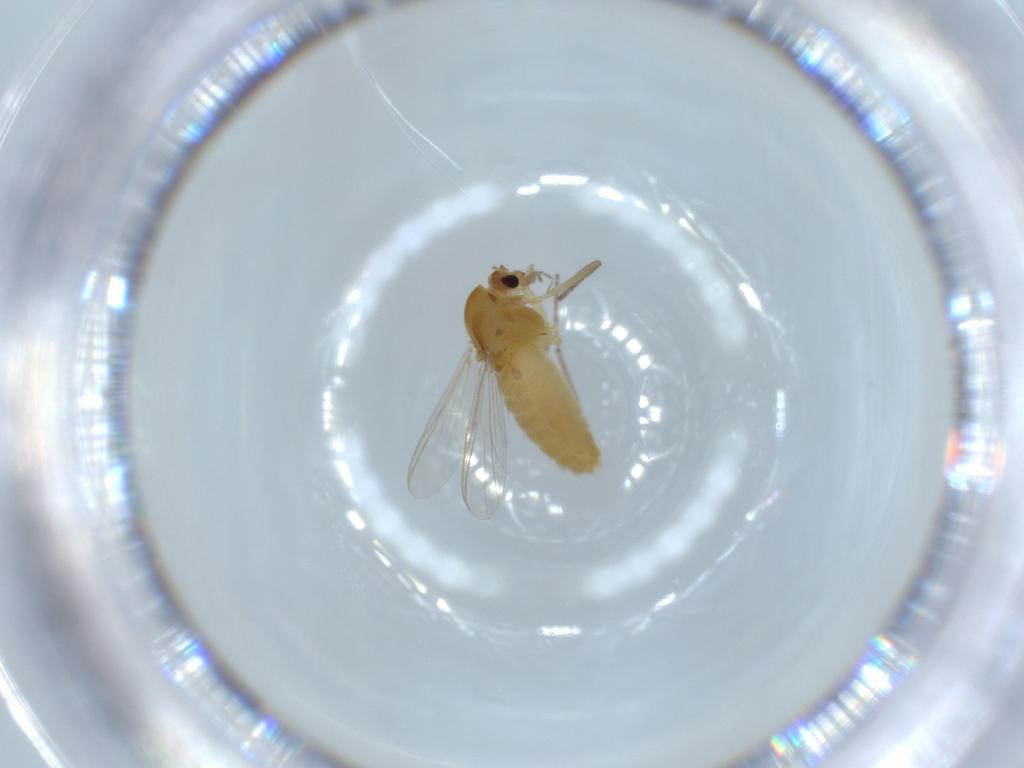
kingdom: Animalia
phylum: Arthropoda
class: Insecta
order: Diptera
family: Chironomidae
